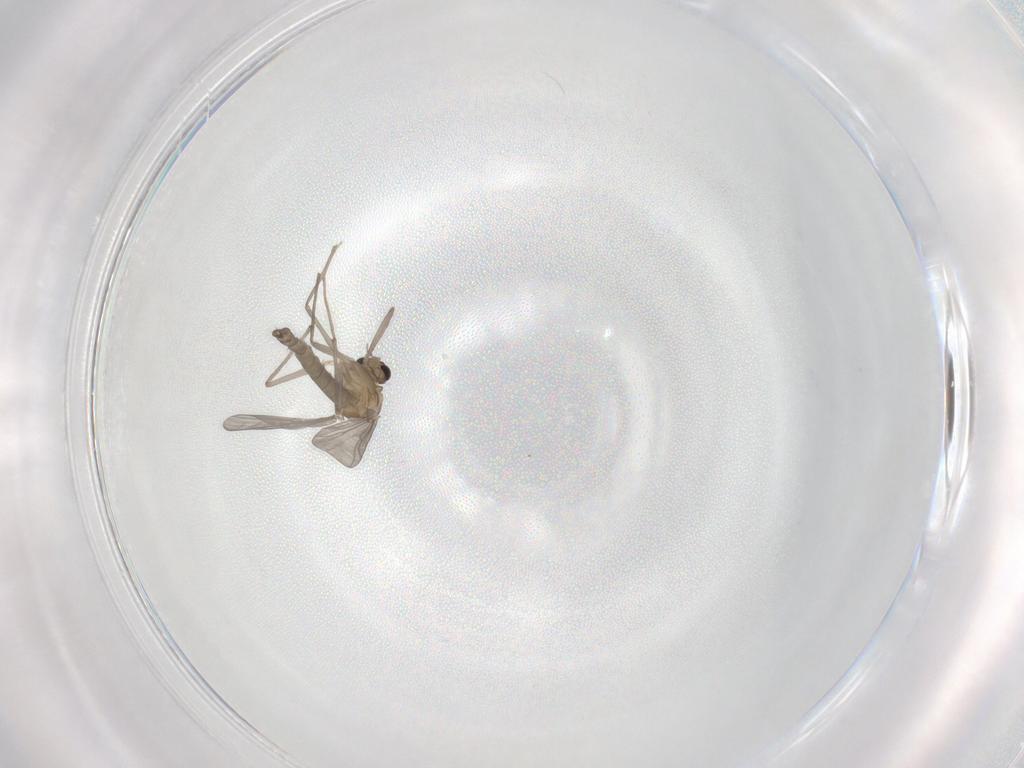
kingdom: Animalia
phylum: Arthropoda
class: Insecta
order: Diptera
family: Chironomidae
